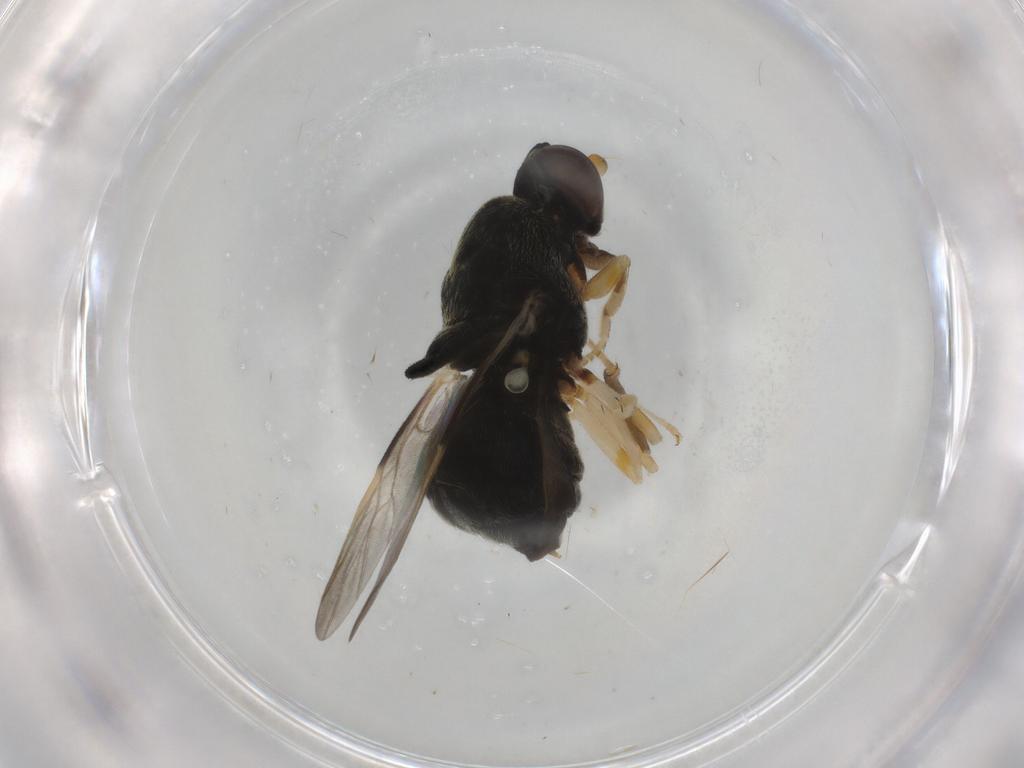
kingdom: Animalia
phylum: Arthropoda
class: Insecta
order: Diptera
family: Stratiomyidae
